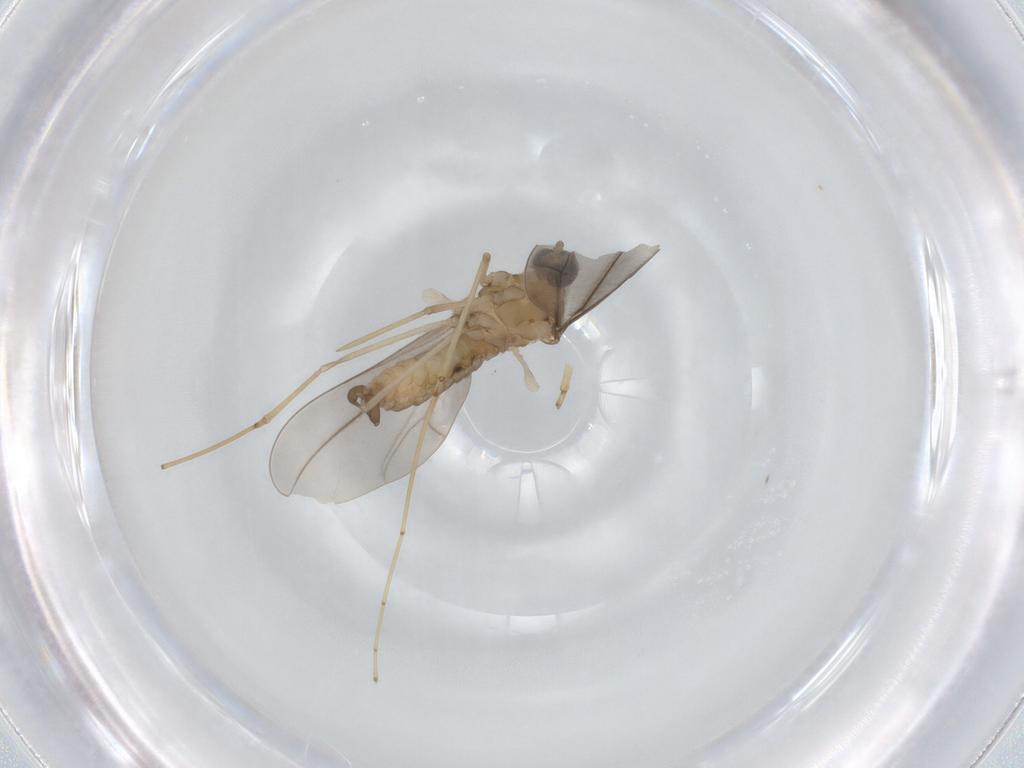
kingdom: Animalia
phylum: Arthropoda
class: Insecta
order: Diptera
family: Cecidomyiidae
